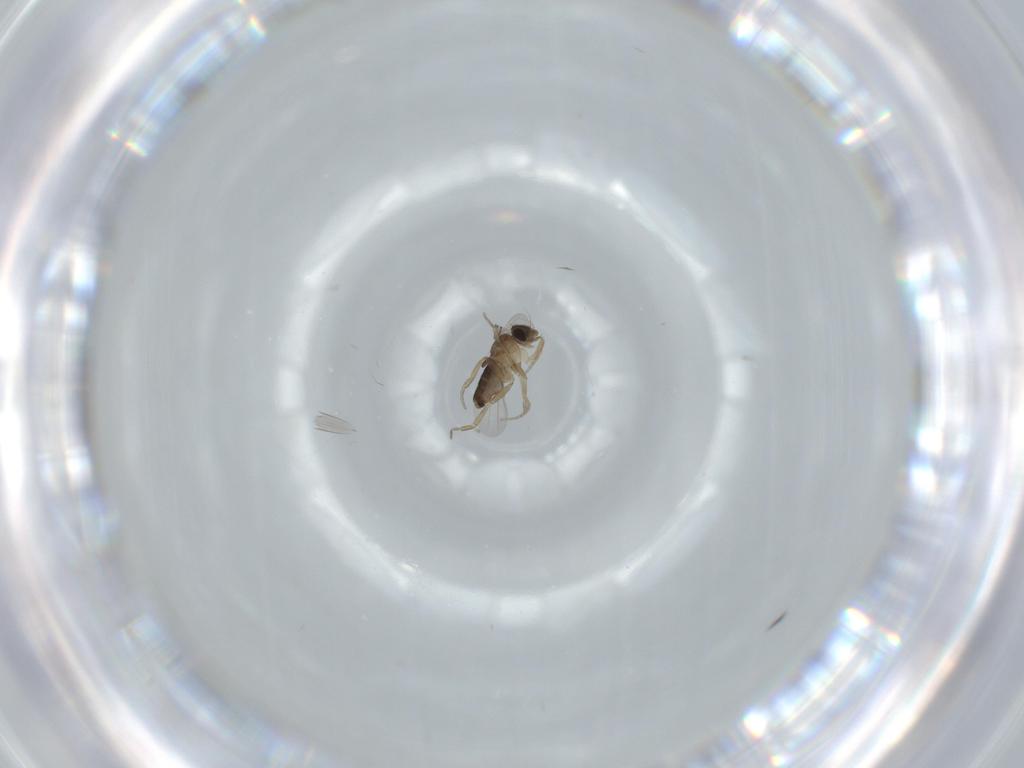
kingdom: Animalia
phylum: Arthropoda
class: Insecta
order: Diptera
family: Phoridae
